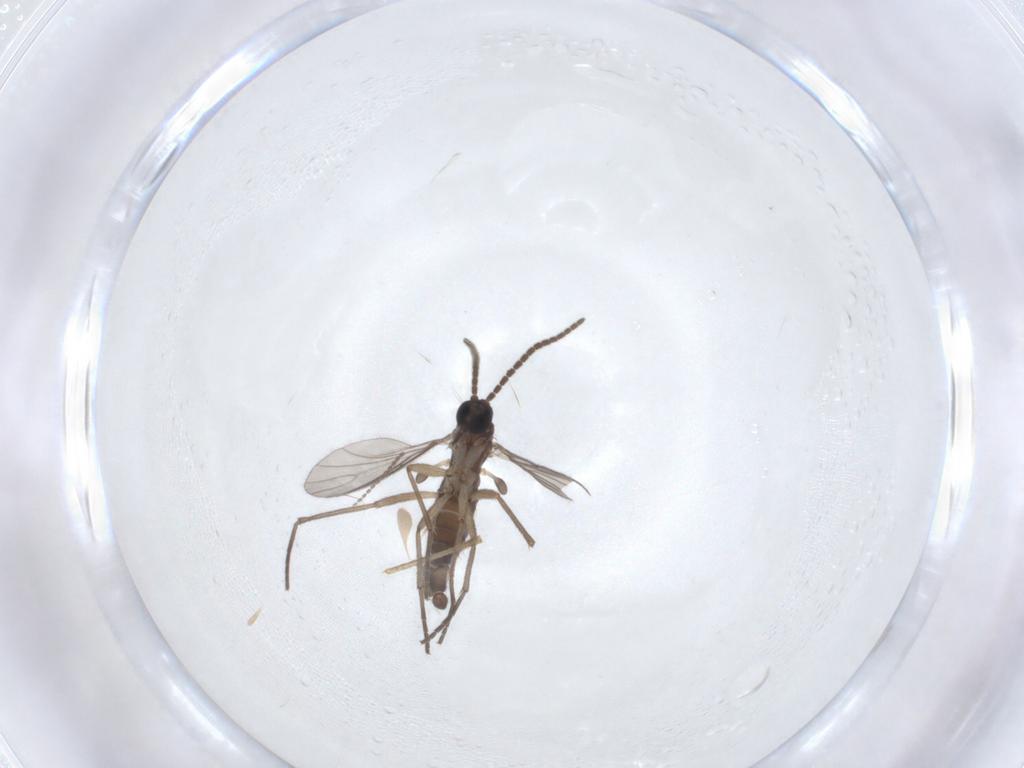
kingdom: Animalia
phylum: Arthropoda
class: Insecta
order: Diptera
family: Sciaridae
